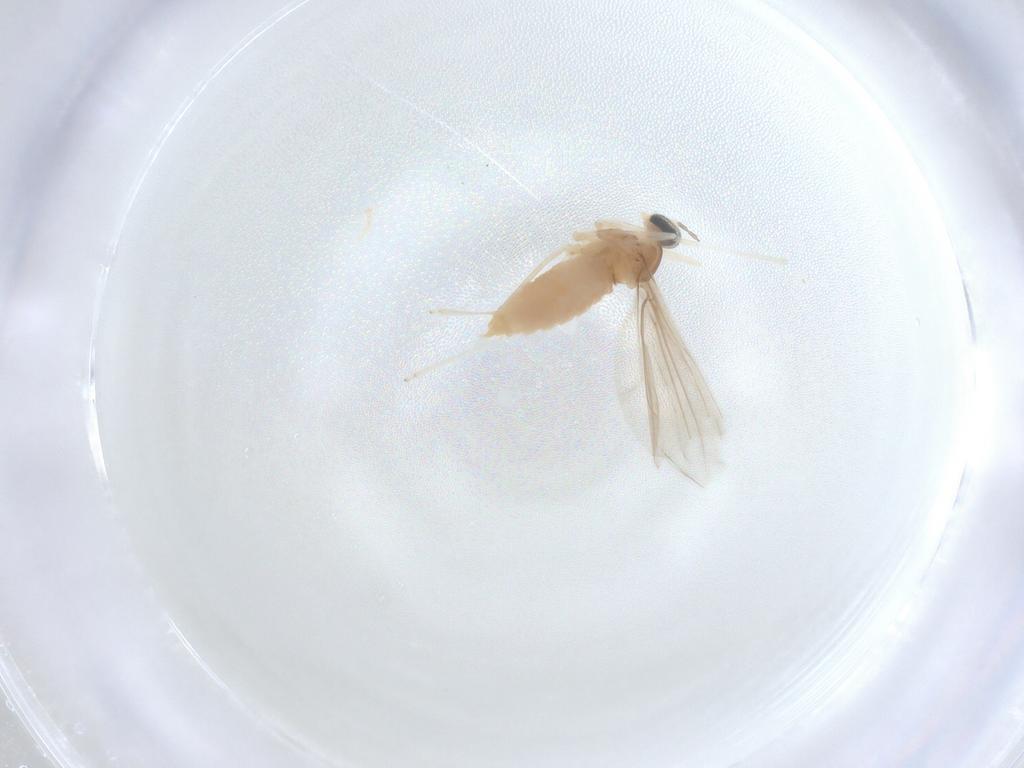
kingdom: Animalia
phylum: Arthropoda
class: Insecta
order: Diptera
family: Cecidomyiidae
